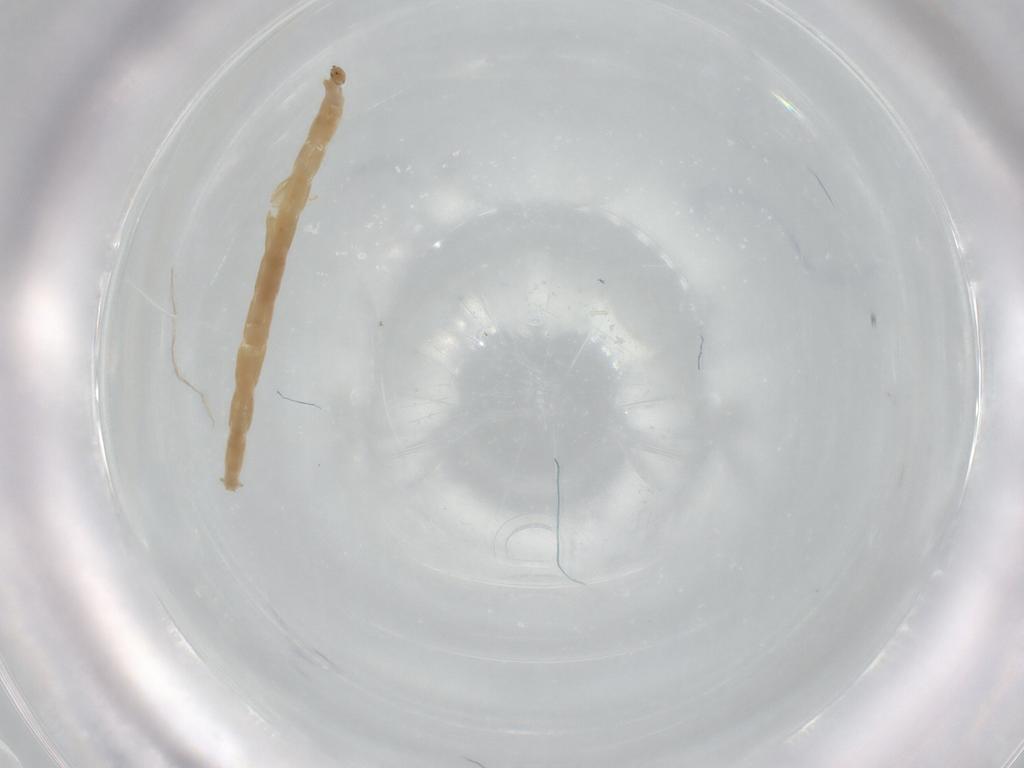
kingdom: Animalia
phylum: Arthropoda
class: Insecta
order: Diptera
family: Chironomidae
